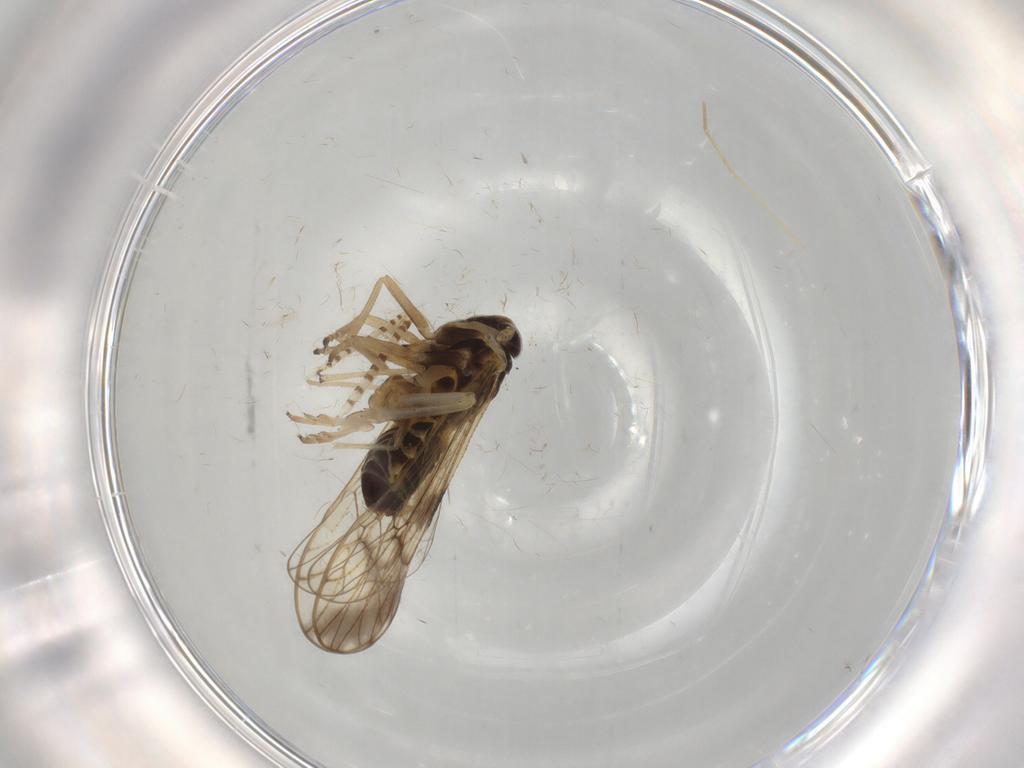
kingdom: Animalia
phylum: Arthropoda
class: Insecta
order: Hemiptera
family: Delphacidae
